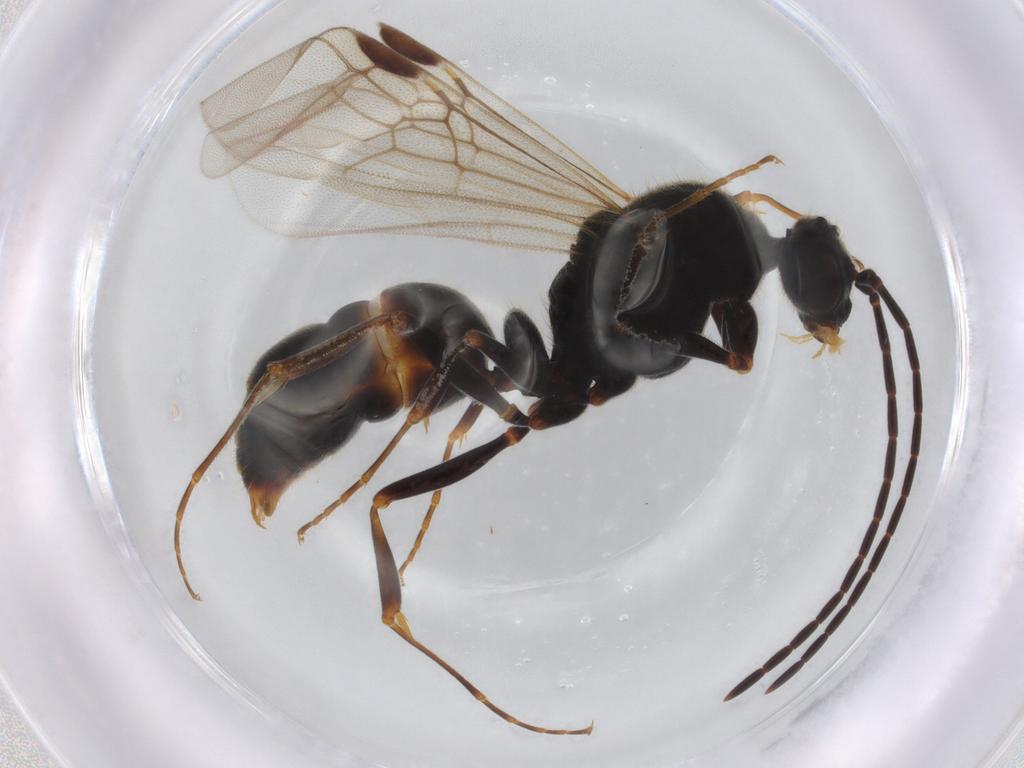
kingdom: Animalia
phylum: Arthropoda
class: Insecta
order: Hymenoptera
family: Formicidae
